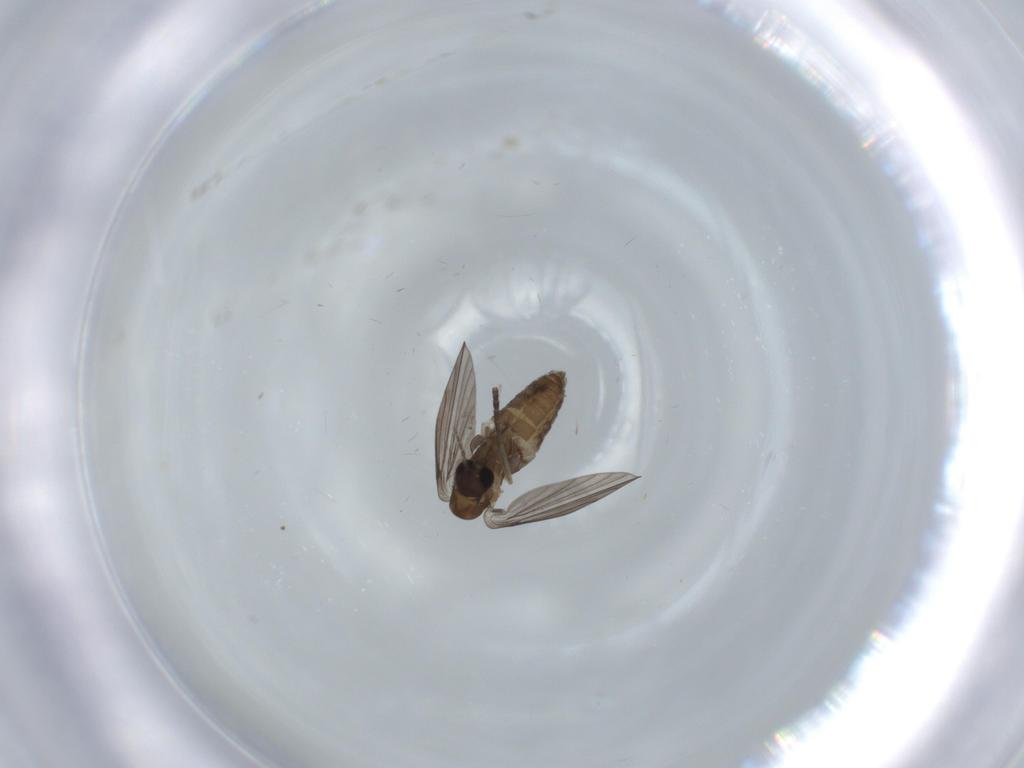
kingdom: Animalia
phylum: Arthropoda
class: Insecta
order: Diptera
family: Psychodidae
